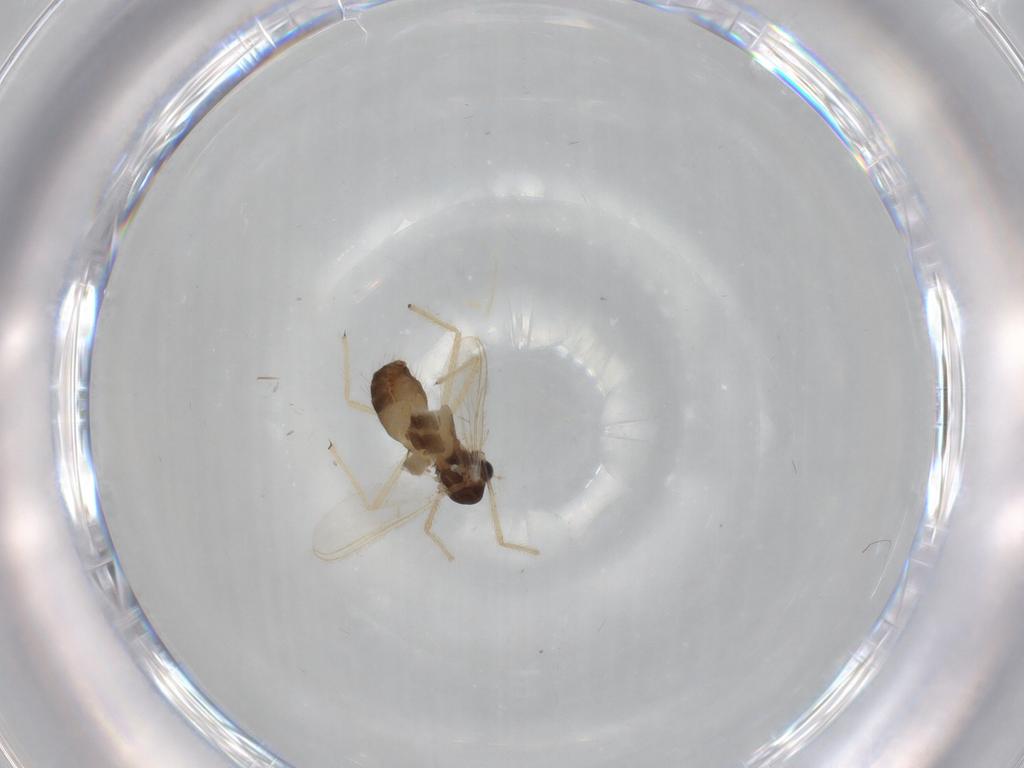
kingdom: Animalia
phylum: Arthropoda
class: Insecta
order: Diptera
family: Chironomidae
